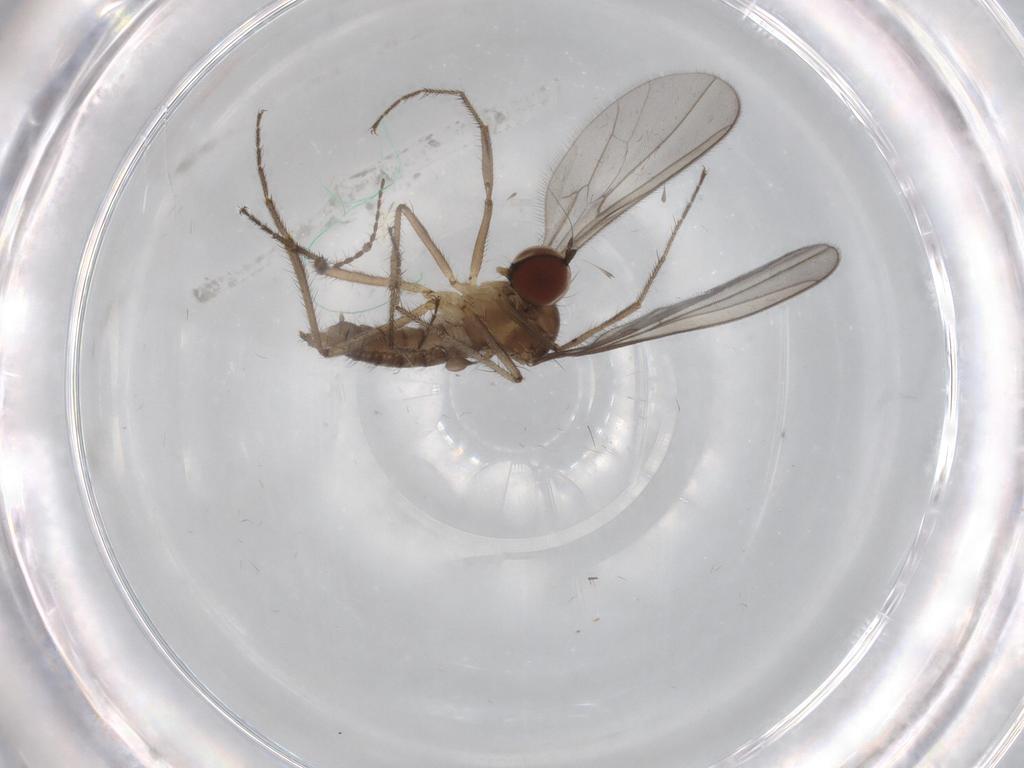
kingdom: Animalia
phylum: Arthropoda
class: Insecta
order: Diptera
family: Hybotidae
